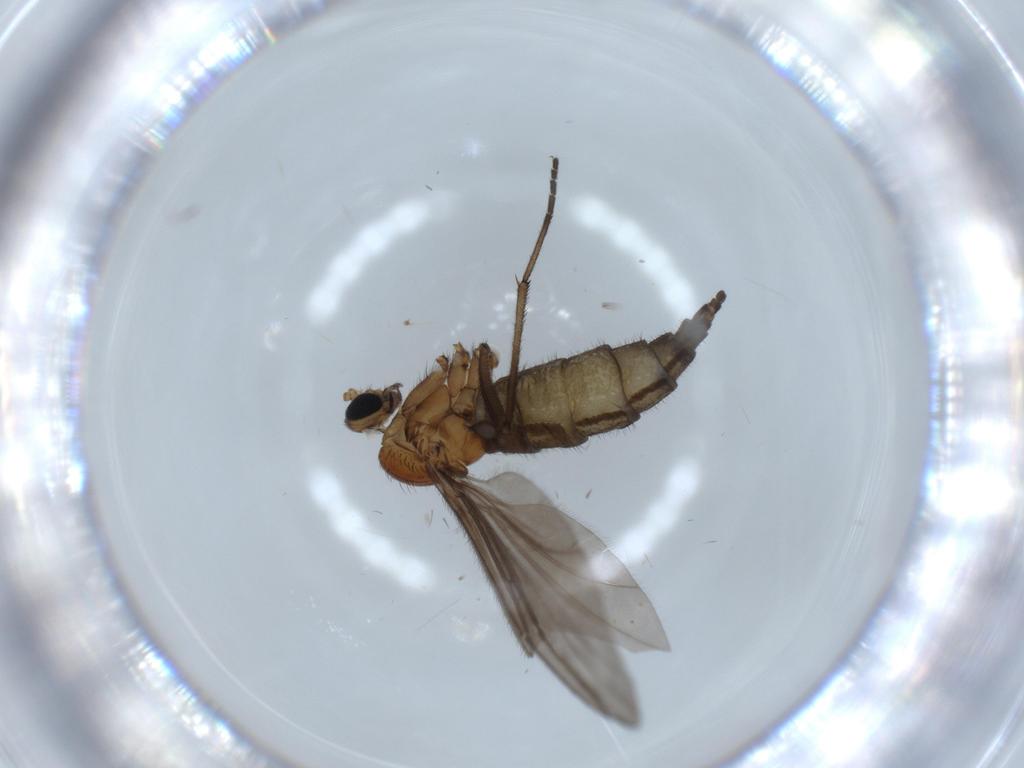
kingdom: Animalia
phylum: Arthropoda
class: Insecta
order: Diptera
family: Sciaridae
